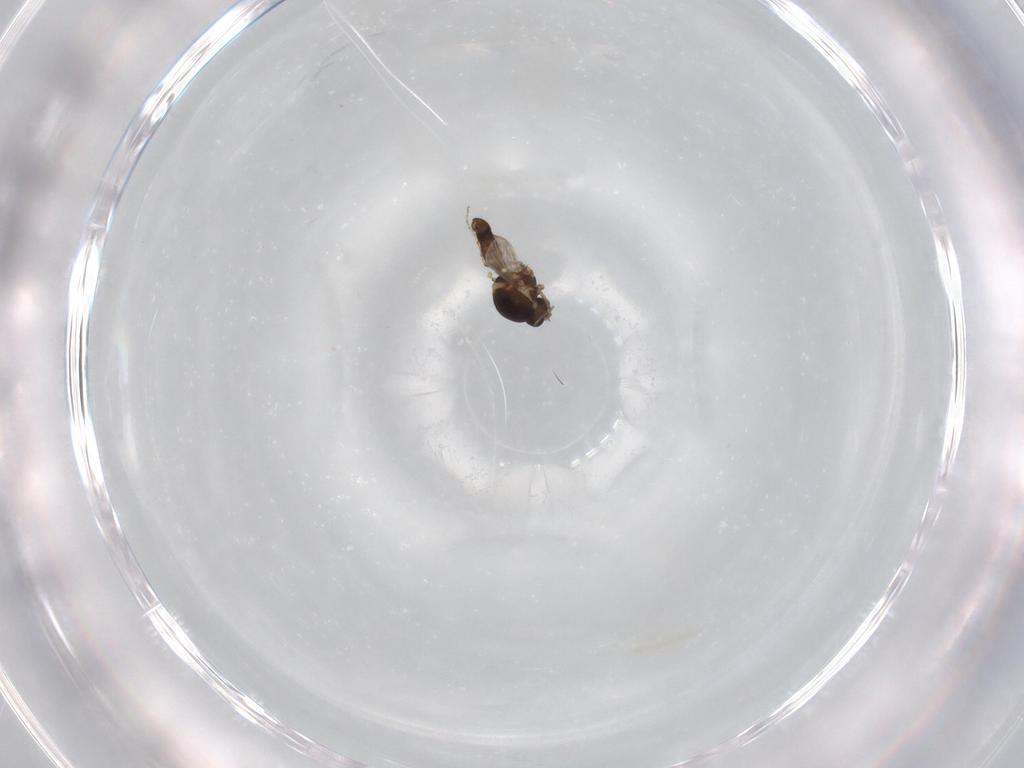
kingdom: Animalia
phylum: Arthropoda
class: Insecta
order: Diptera
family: Ceratopogonidae
